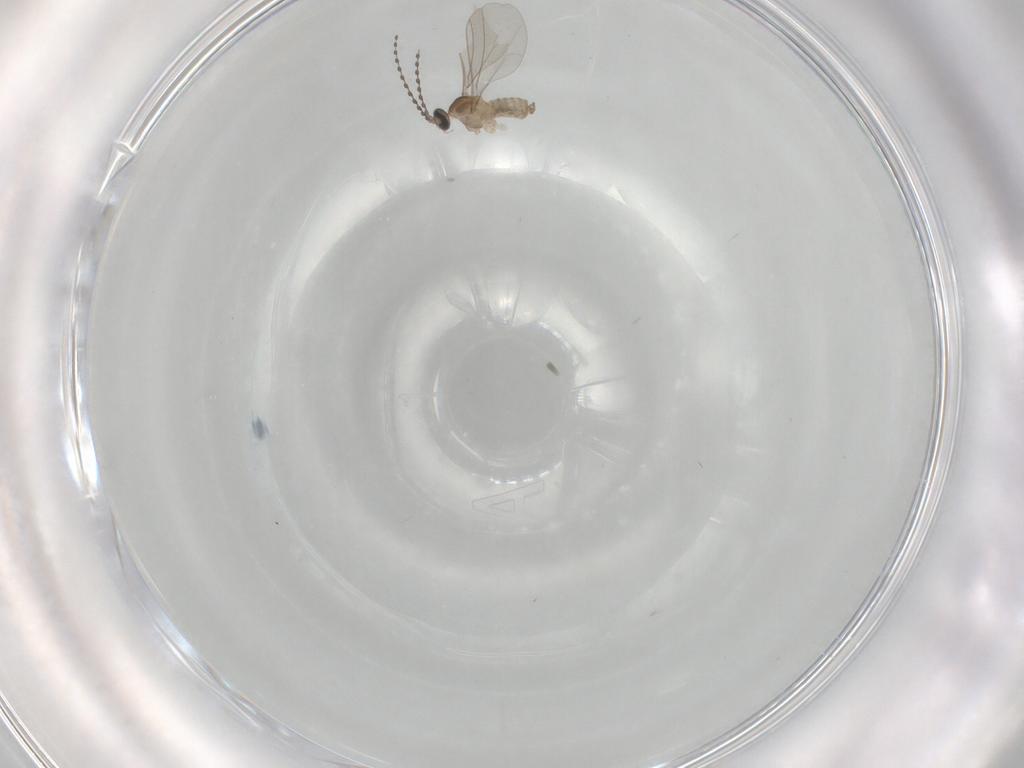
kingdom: Animalia
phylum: Arthropoda
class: Insecta
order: Diptera
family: Cecidomyiidae
